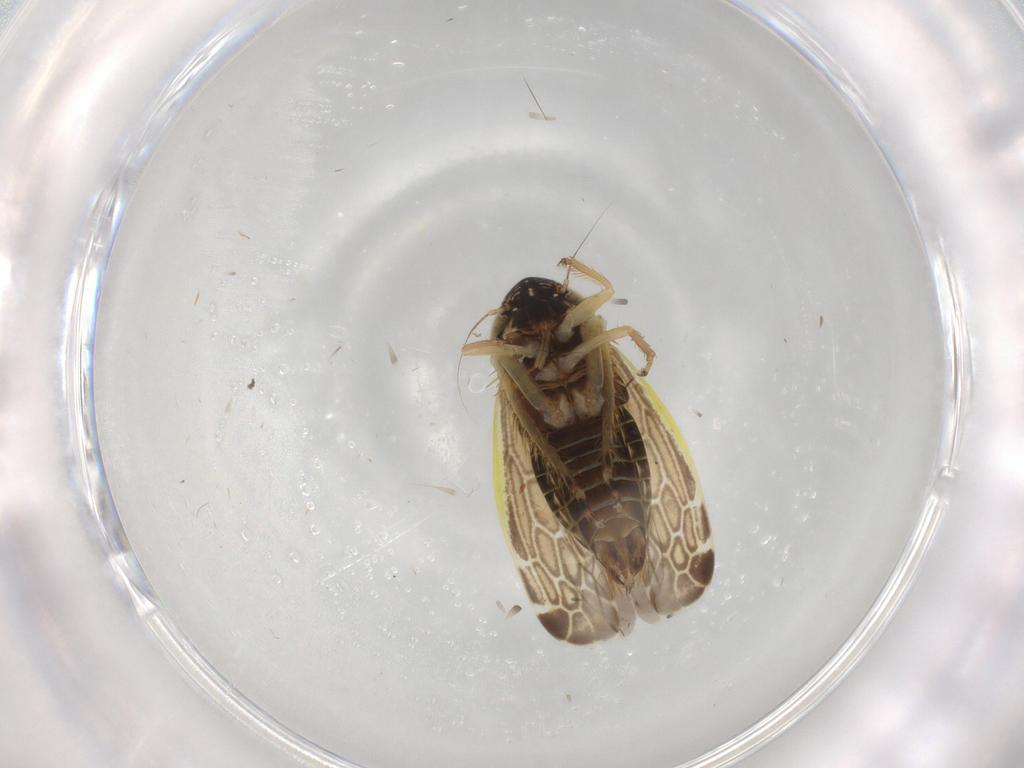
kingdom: Animalia
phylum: Arthropoda
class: Insecta
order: Hemiptera
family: Cicadellidae
